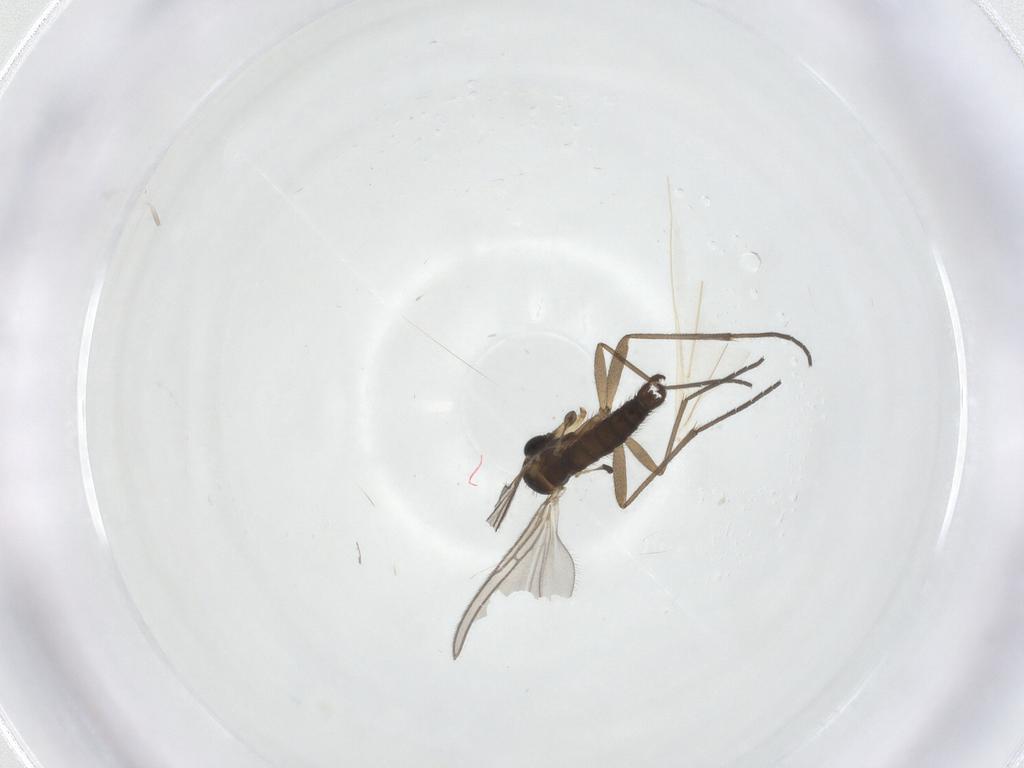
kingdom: Animalia
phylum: Arthropoda
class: Insecta
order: Diptera
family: Sciaridae
